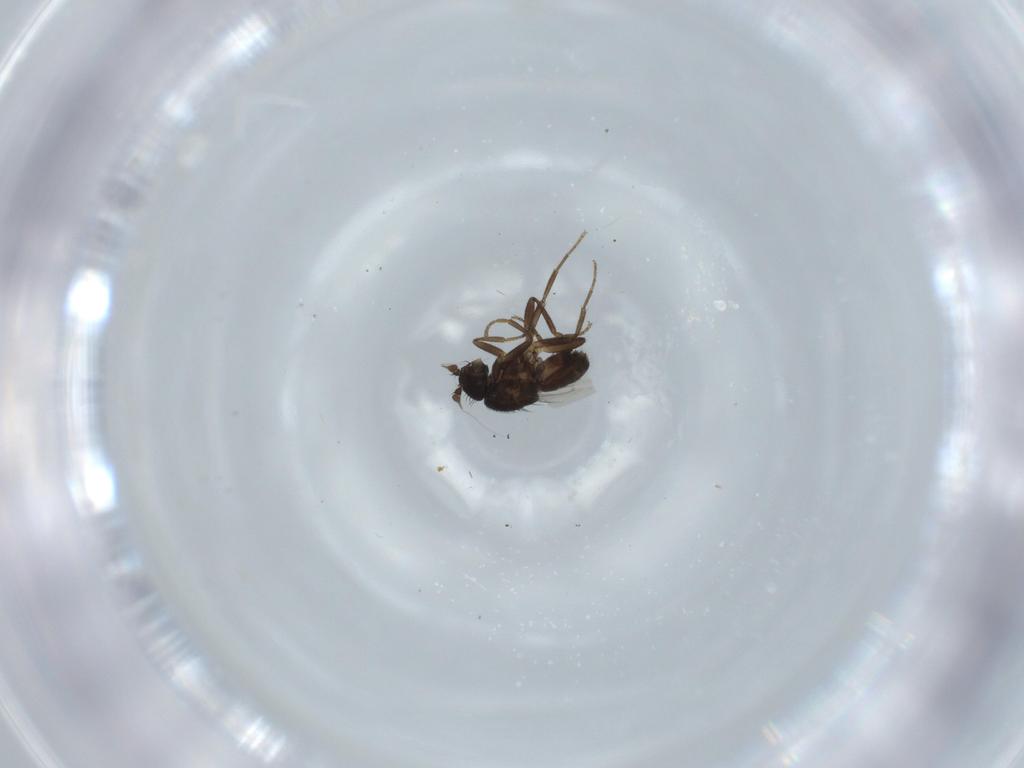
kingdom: Animalia
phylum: Arthropoda
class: Insecta
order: Diptera
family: Sphaeroceridae
